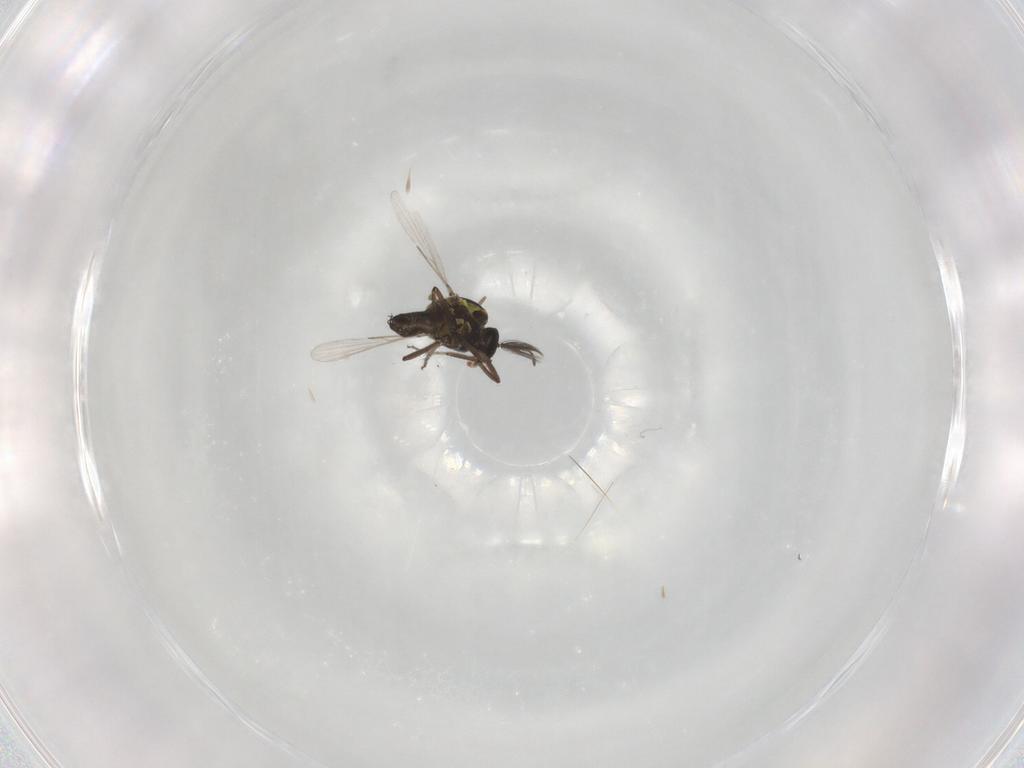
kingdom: Animalia
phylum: Arthropoda
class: Insecta
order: Diptera
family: Ceratopogonidae
